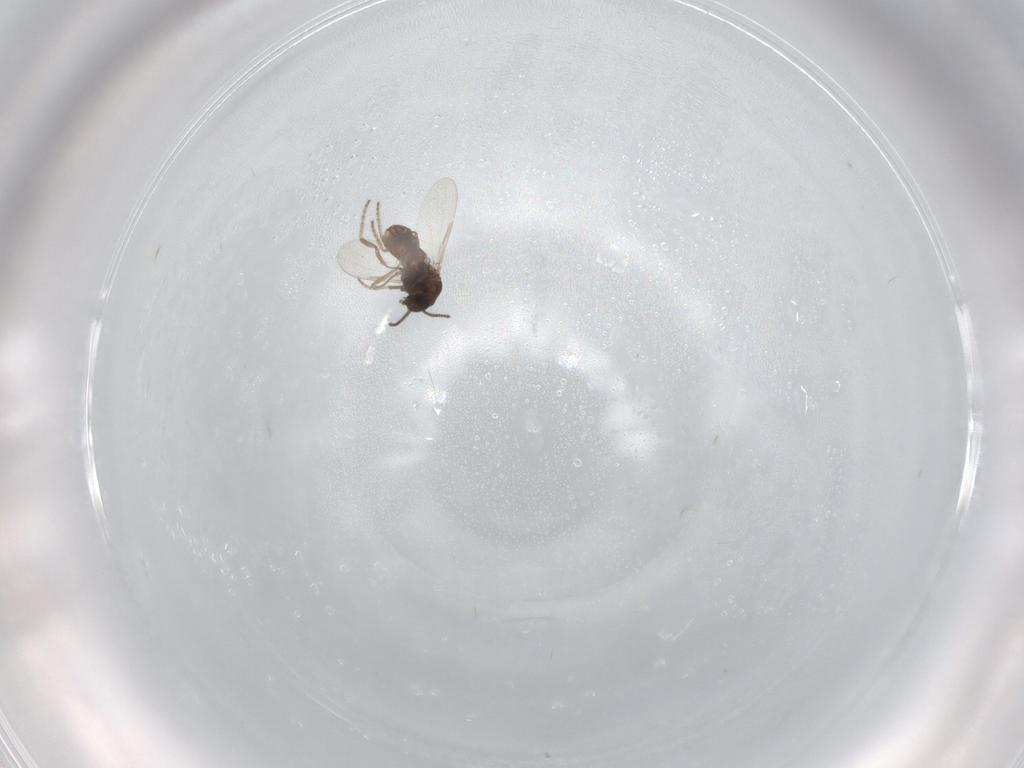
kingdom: Animalia
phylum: Arthropoda
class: Insecta
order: Diptera
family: Ceratopogonidae
